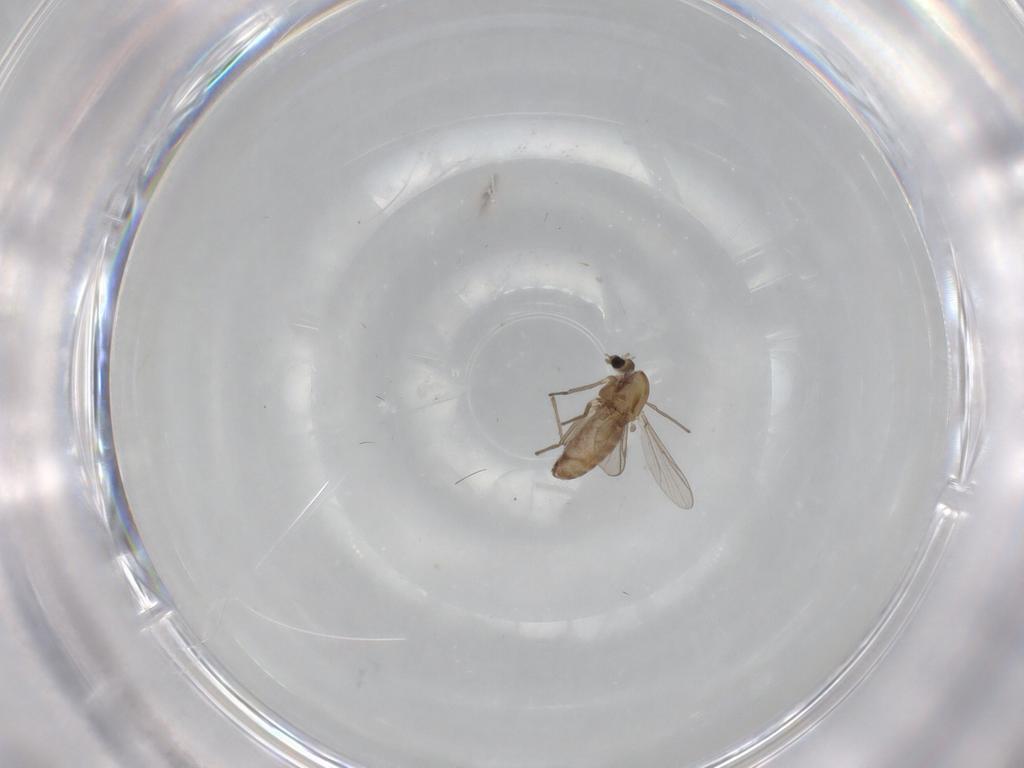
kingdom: Animalia
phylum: Arthropoda
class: Insecta
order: Diptera
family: Chironomidae
